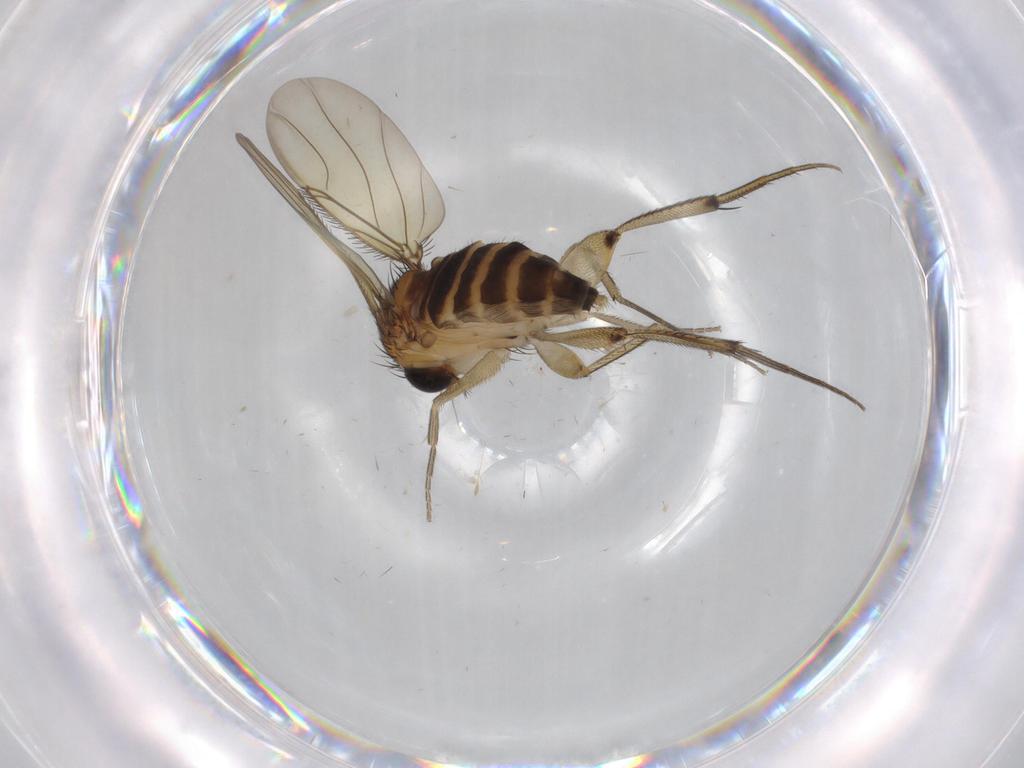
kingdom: Animalia
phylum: Arthropoda
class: Insecta
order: Diptera
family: Phoridae
